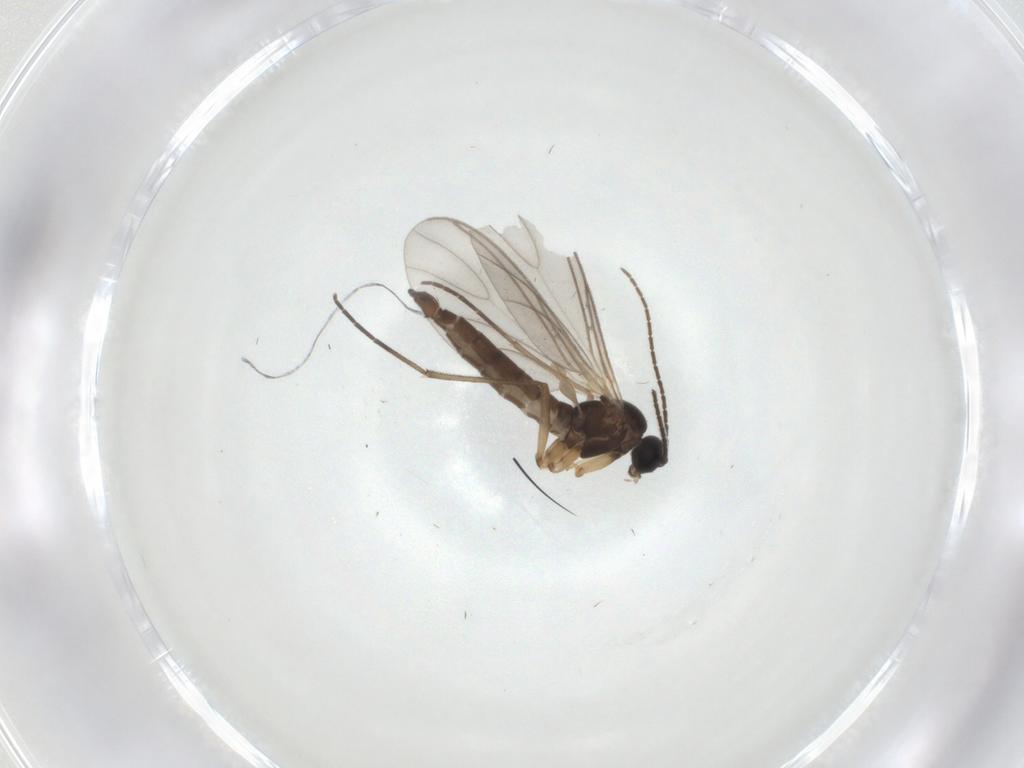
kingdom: Animalia
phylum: Arthropoda
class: Insecta
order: Diptera
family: Sciaridae
